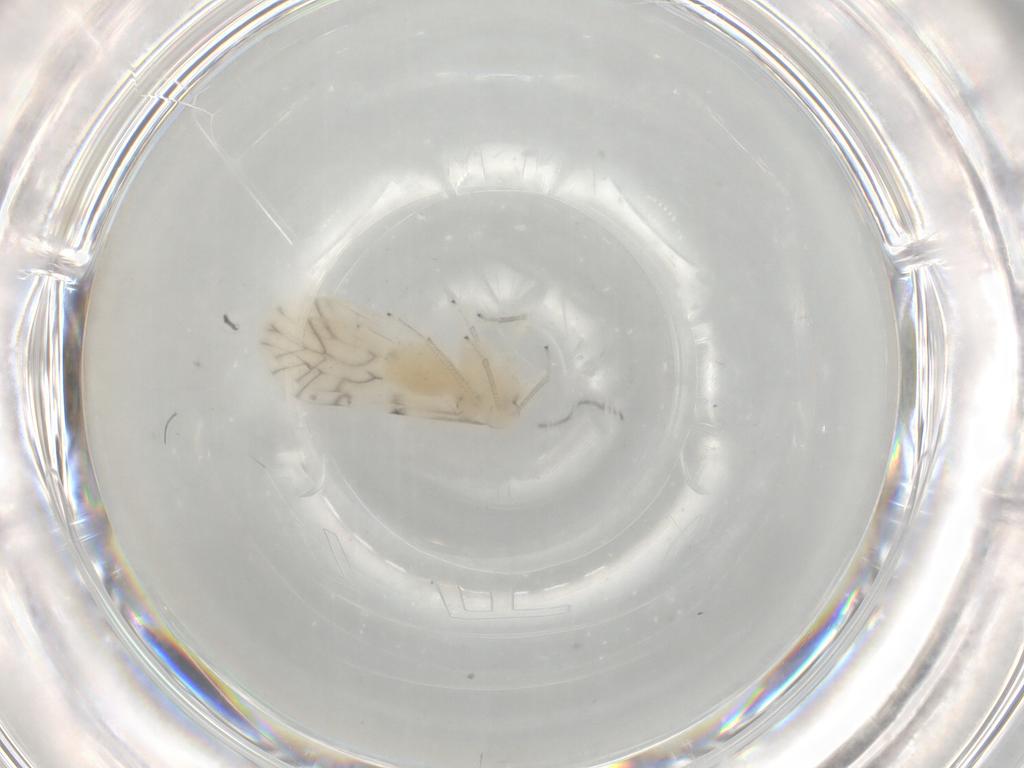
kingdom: Animalia
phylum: Arthropoda
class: Insecta
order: Psocodea
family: Caeciliusidae
